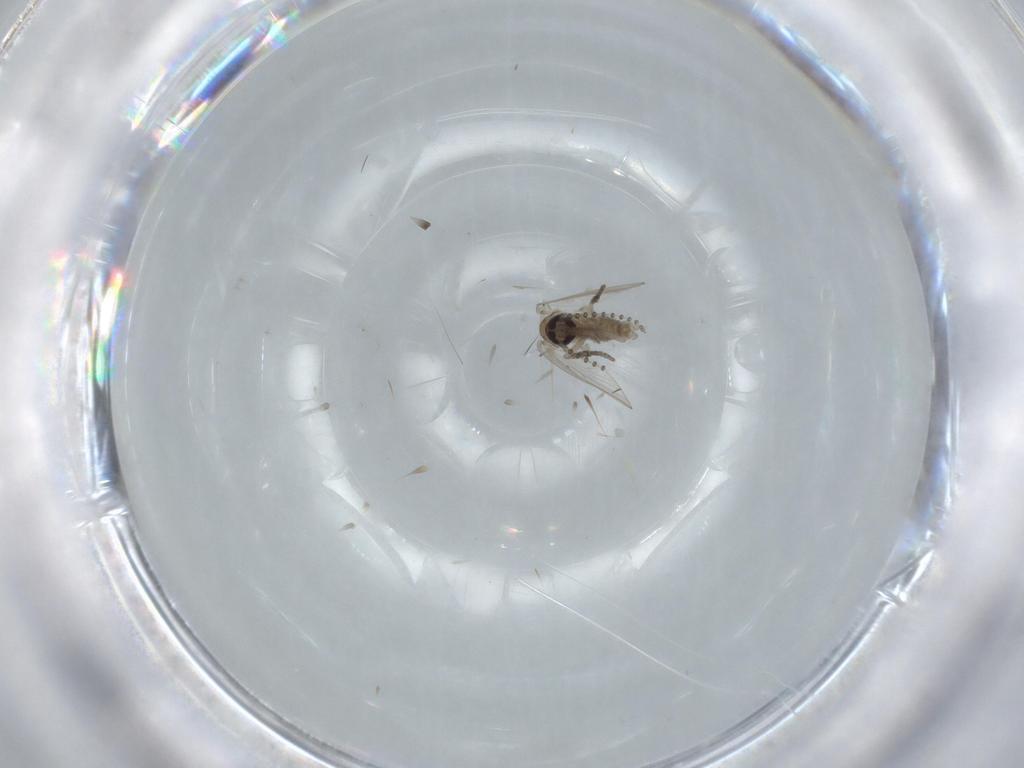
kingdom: Animalia
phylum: Arthropoda
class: Insecta
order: Diptera
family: Psychodidae
